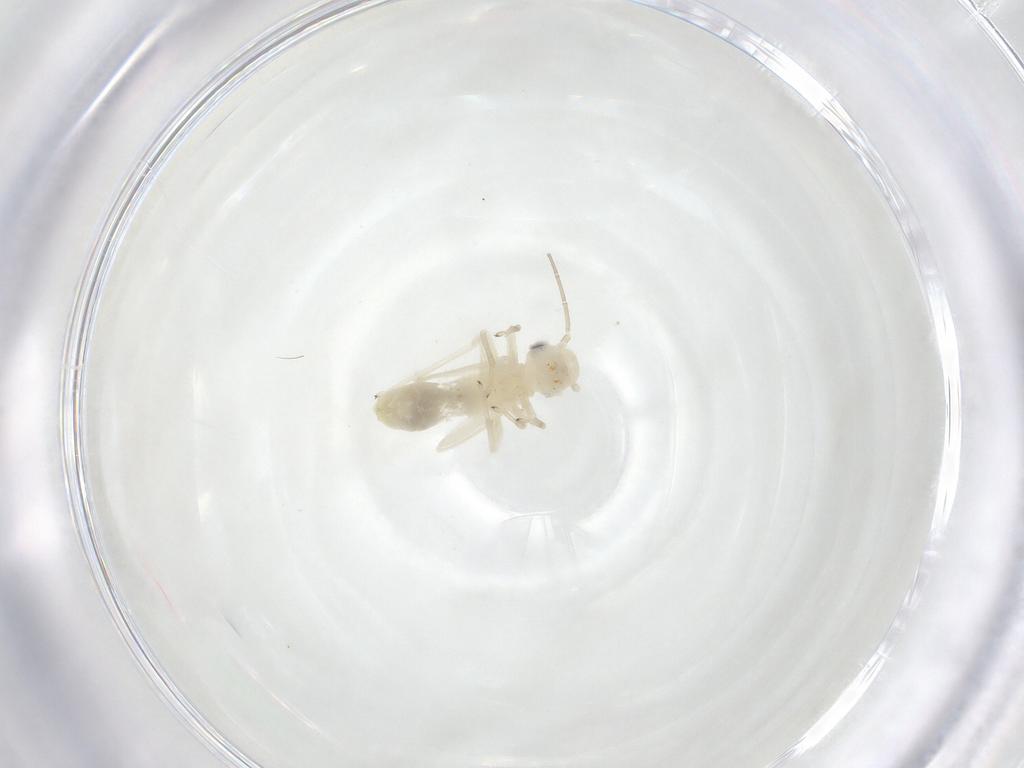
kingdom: Animalia
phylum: Arthropoda
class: Insecta
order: Psocodea
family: Caeciliusidae
